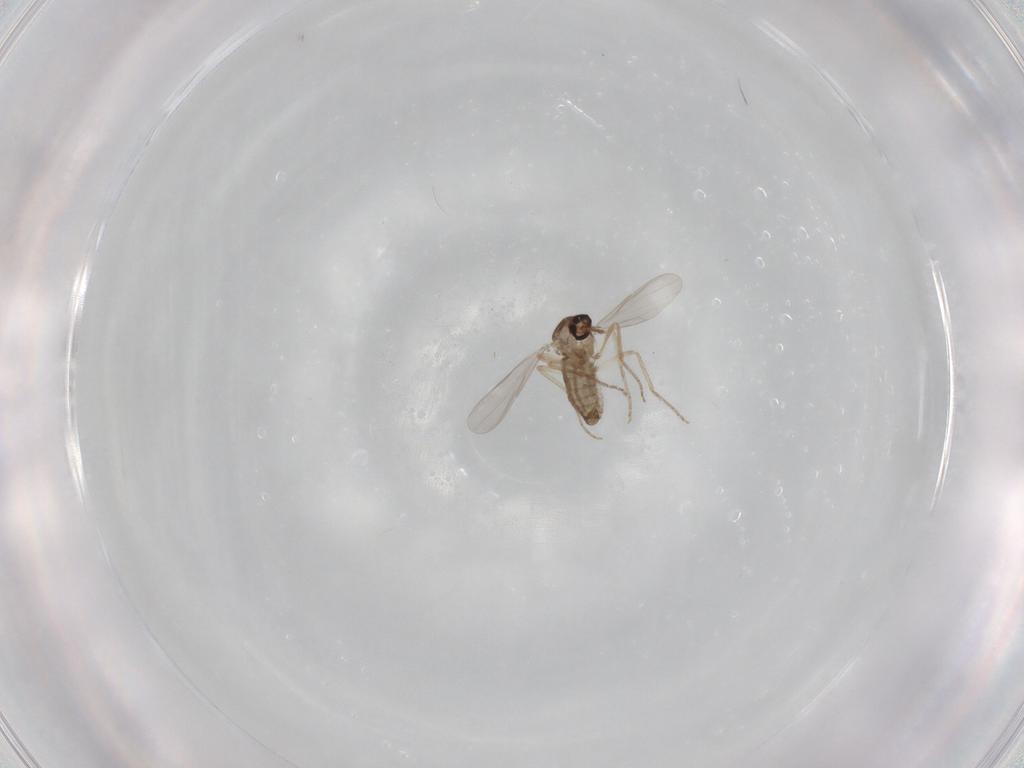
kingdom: Animalia
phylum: Arthropoda
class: Insecta
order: Diptera
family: Ceratopogonidae
